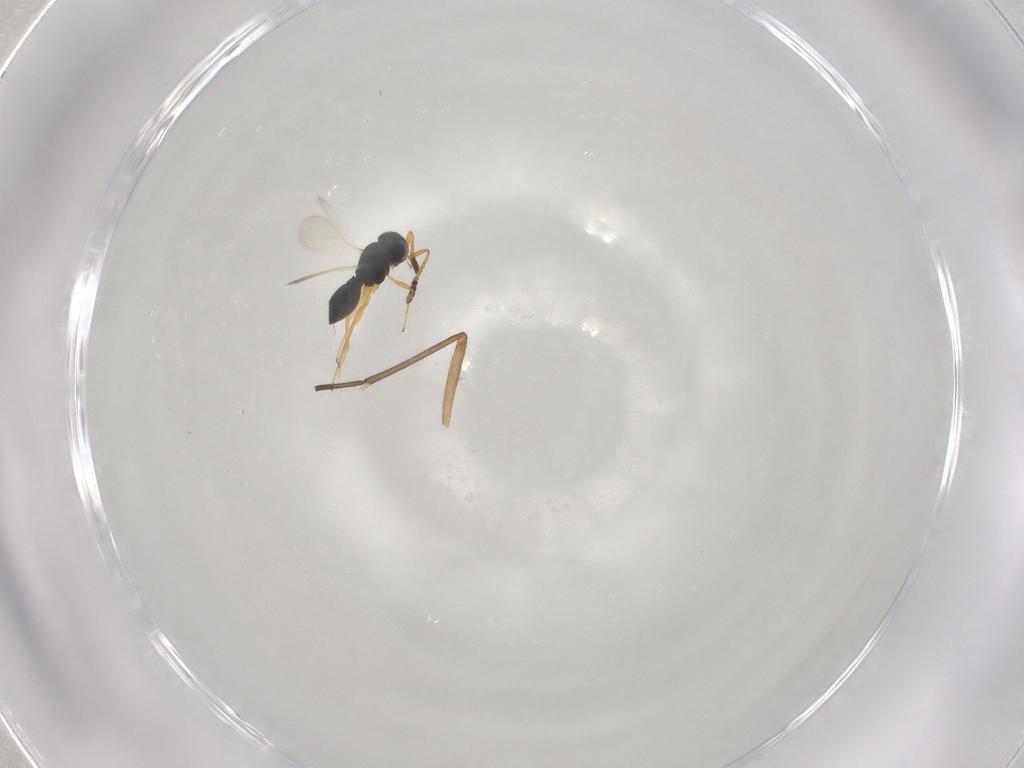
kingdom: Animalia
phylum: Arthropoda
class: Insecta
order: Hymenoptera
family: Scelionidae
